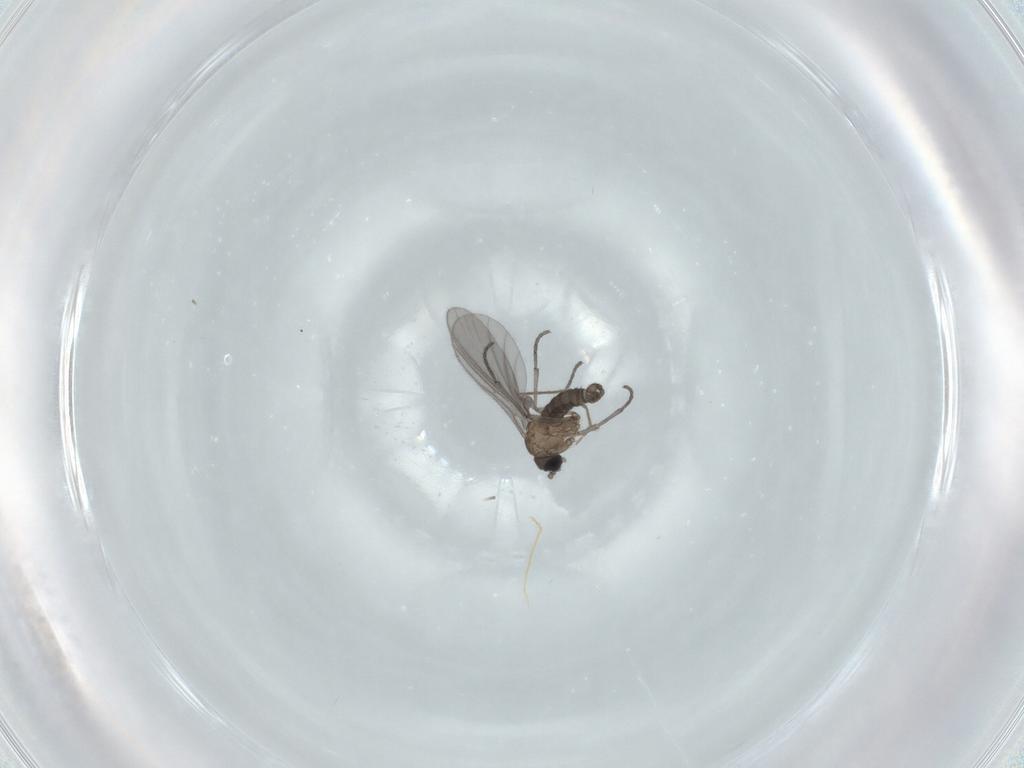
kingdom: Animalia
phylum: Arthropoda
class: Insecta
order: Diptera
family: Sciaridae
